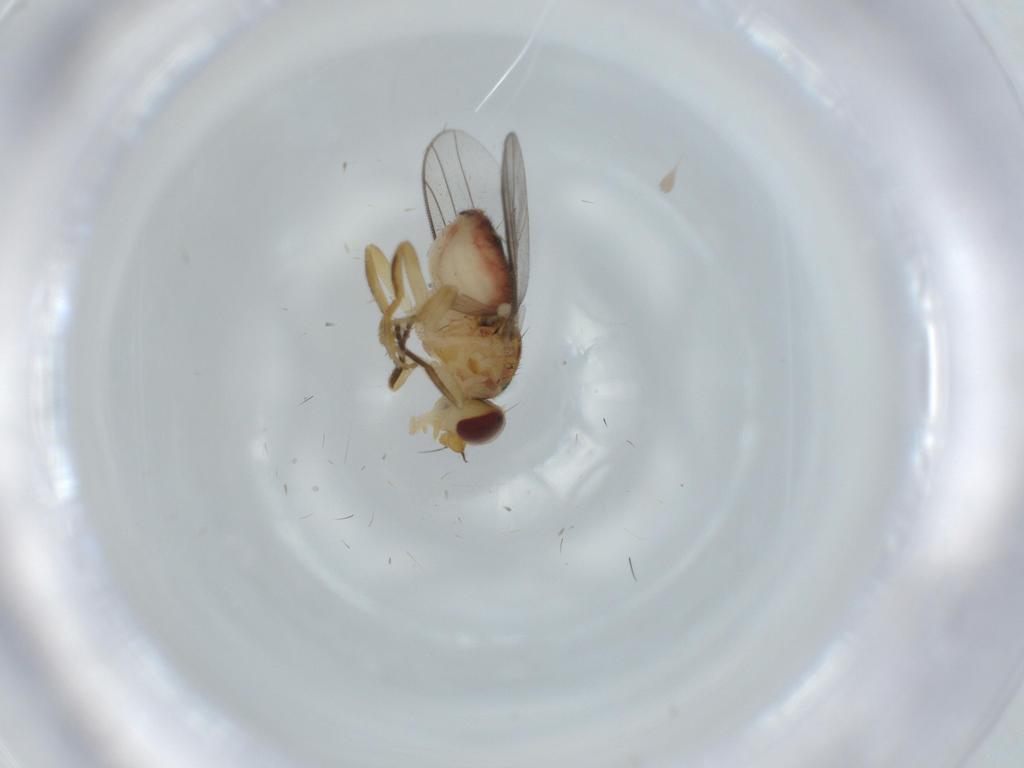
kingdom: Animalia
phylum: Arthropoda
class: Insecta
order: Diptera
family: Chloropidae
